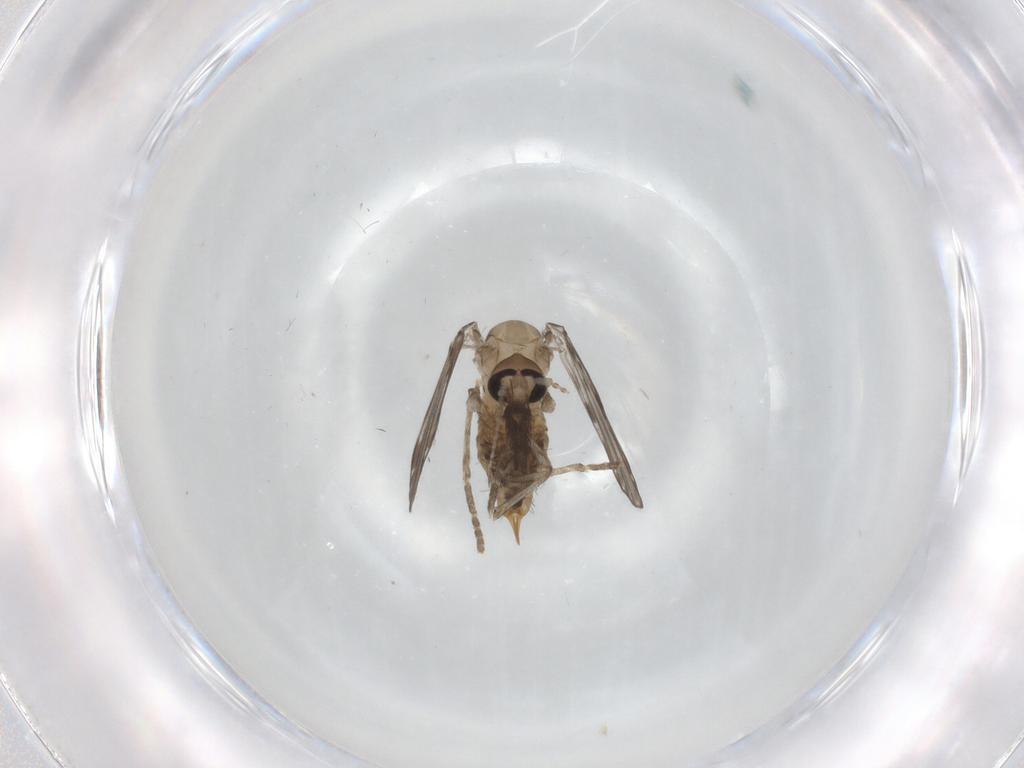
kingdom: Animalia
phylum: Arthropoda
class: Insecta
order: Diptera
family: Psychodidae
